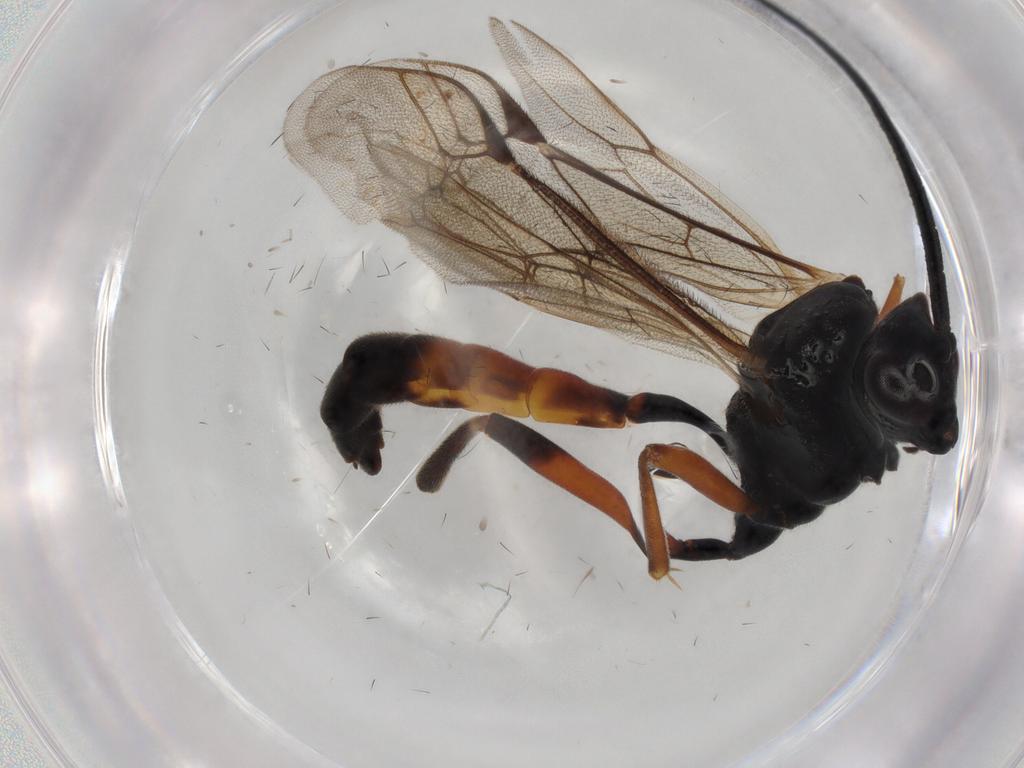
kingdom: Animalia
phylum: Arthropoda
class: Insecta
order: Hymenoptera
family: Ichneumonidae
